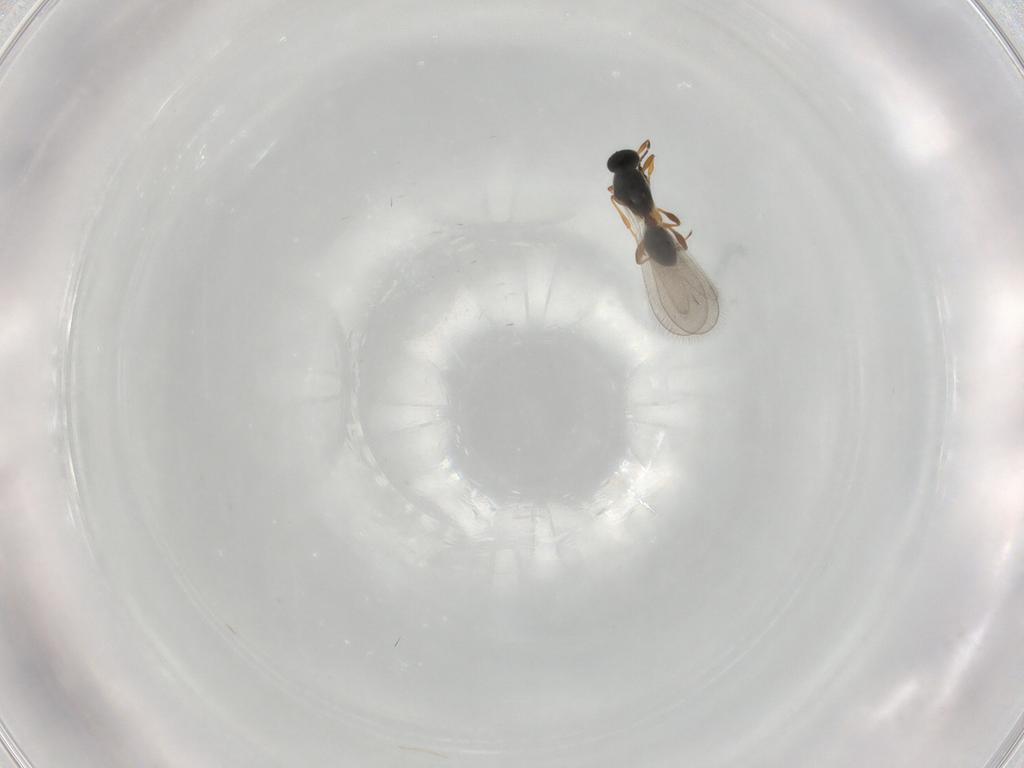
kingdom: Animalia
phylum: Arthropoda
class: Insecta
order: Hymenoptera
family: Platygastridae
